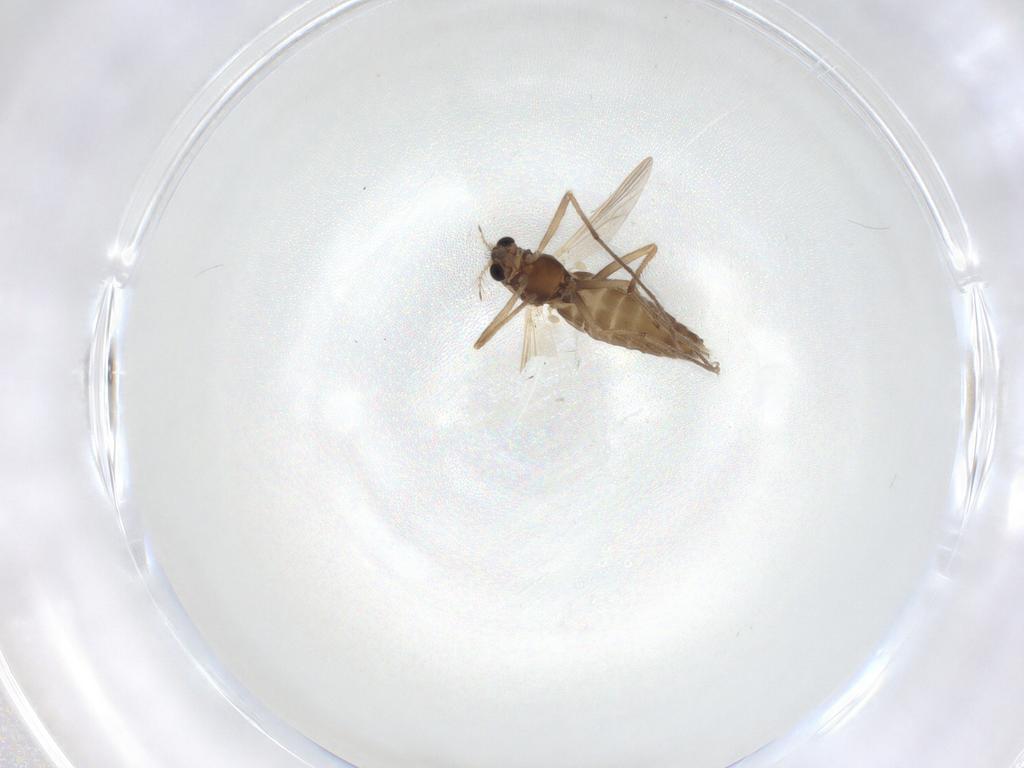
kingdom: Animalia
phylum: Arthropoda
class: Insecta
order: Diptera
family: Chironomidae
